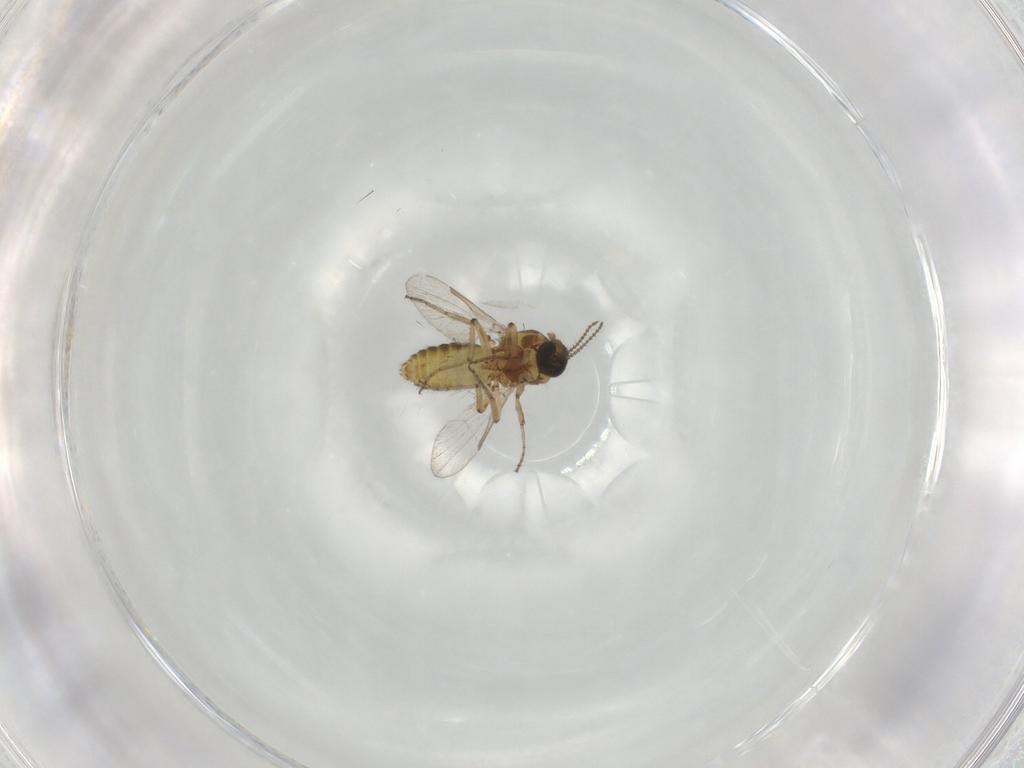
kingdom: Animalia
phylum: Arthropoda
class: Insecta
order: Diptera
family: Ceratopogonidae
